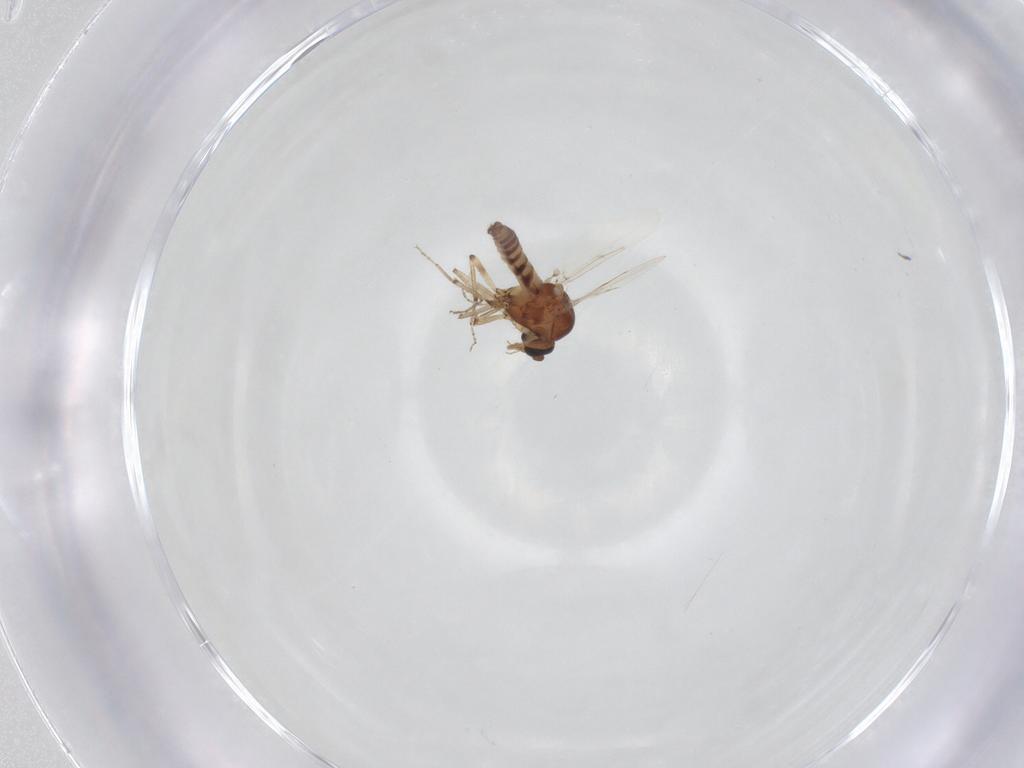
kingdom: Animalia
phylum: Arthropoda
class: Insecta
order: Diptera
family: Ceratopogonidae
